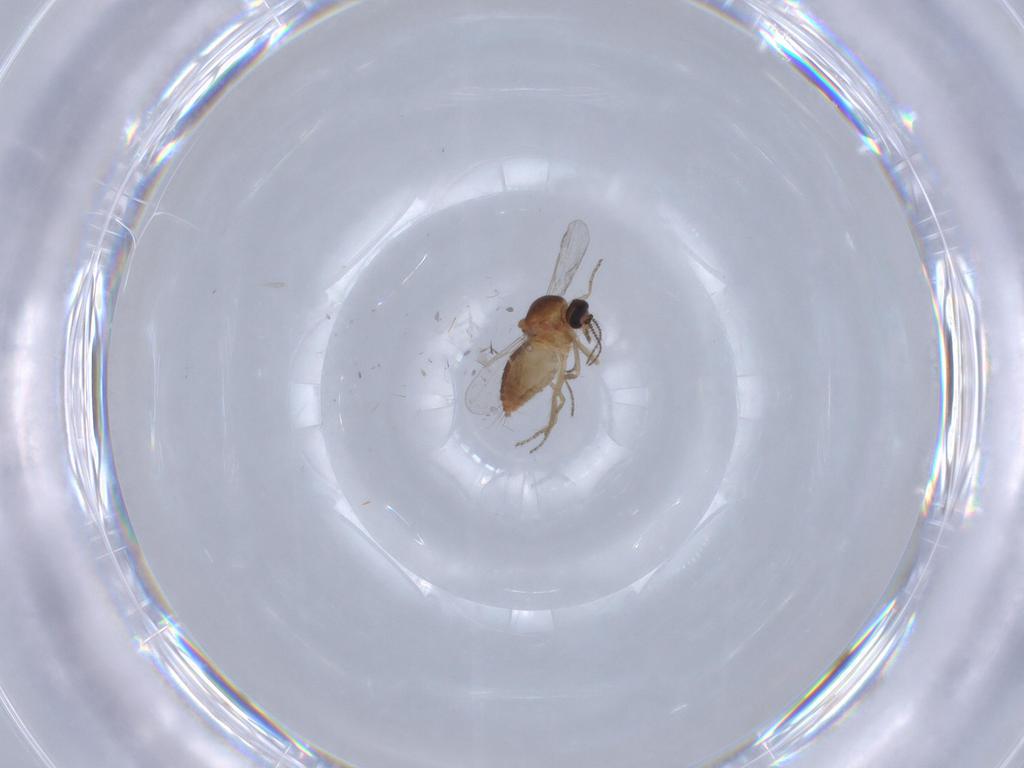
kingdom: Animalia
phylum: Arthropoda
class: Insecta
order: Diptera
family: Ceratopogonidae
